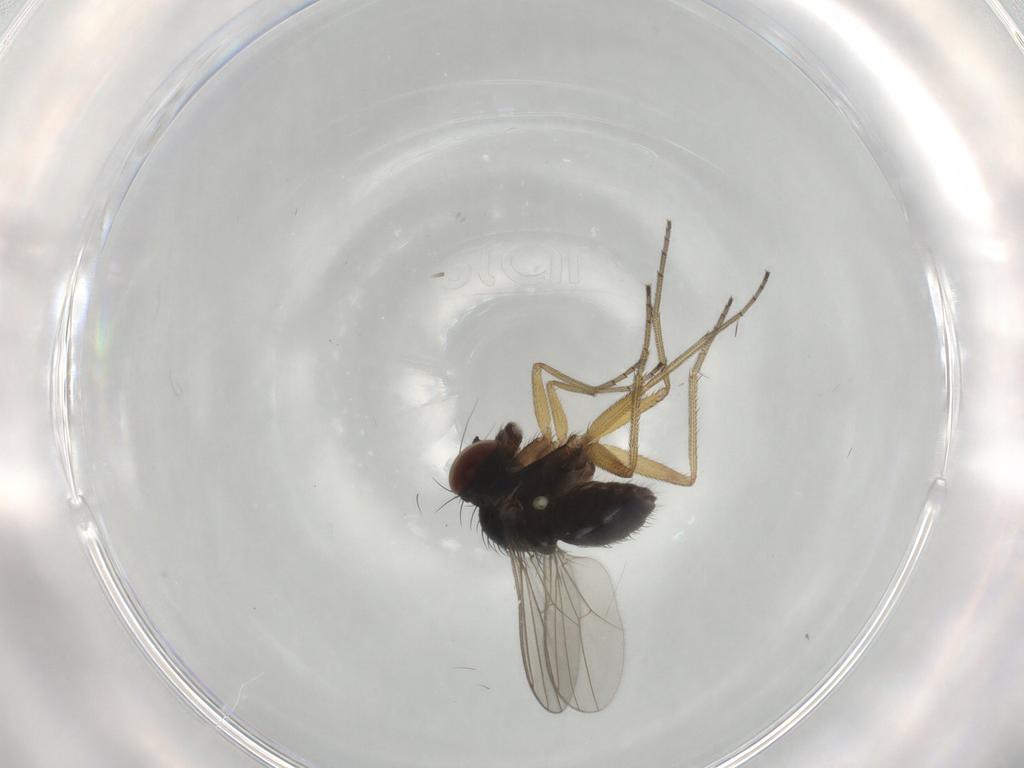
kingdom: Animalia
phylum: Arthropoda
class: Insecta
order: Diptera
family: Dolichopodidae
